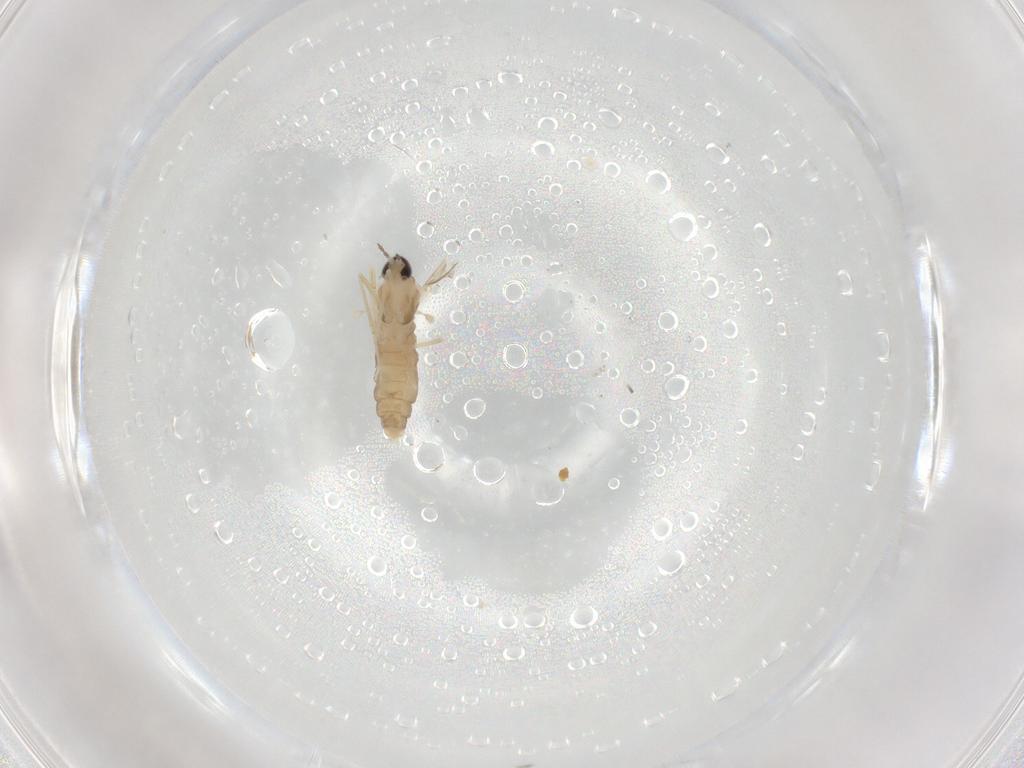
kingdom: Animalia
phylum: Arthropoda
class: Insecta
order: Diptera
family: Cecidomyiidae
